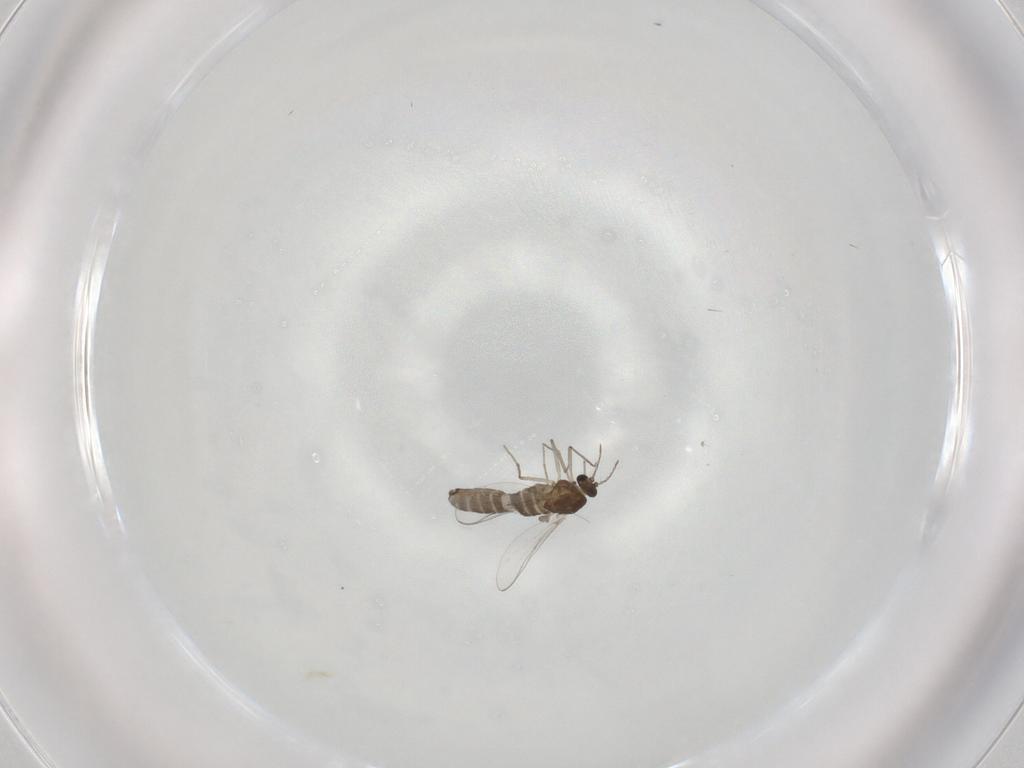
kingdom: Animalia
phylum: Arthropoda
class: Insecta
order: Diptera
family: Chironomidae
